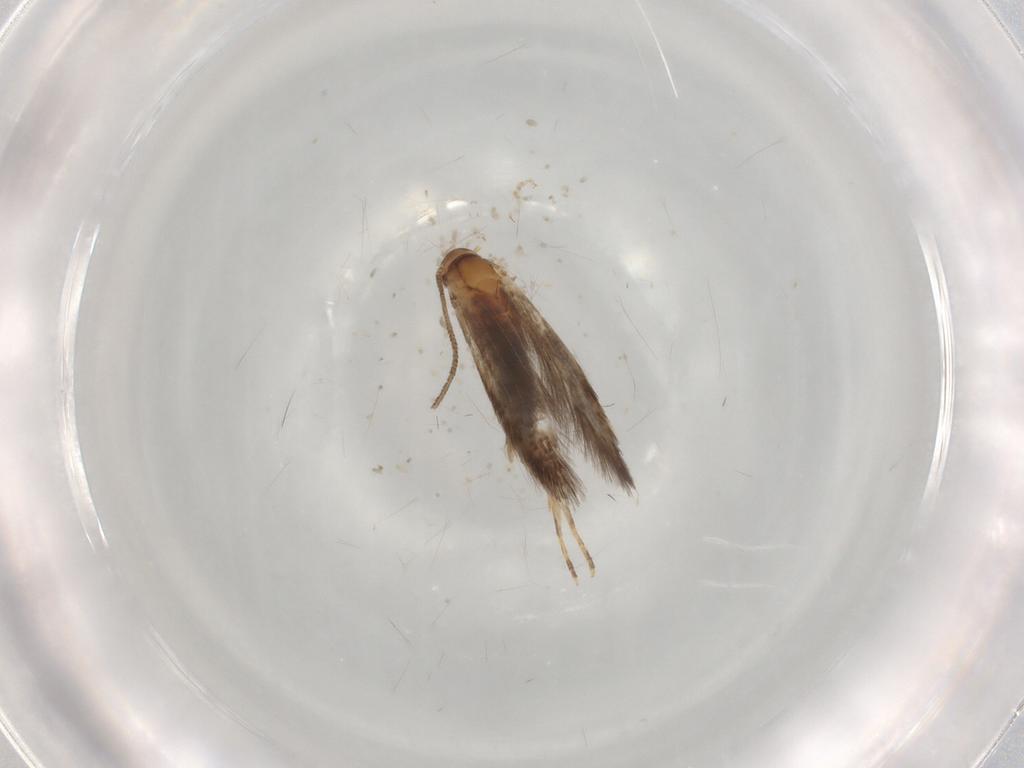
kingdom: Animalia
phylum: Arthropoda
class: Insecta
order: Lepidoptera
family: Elachistidae
